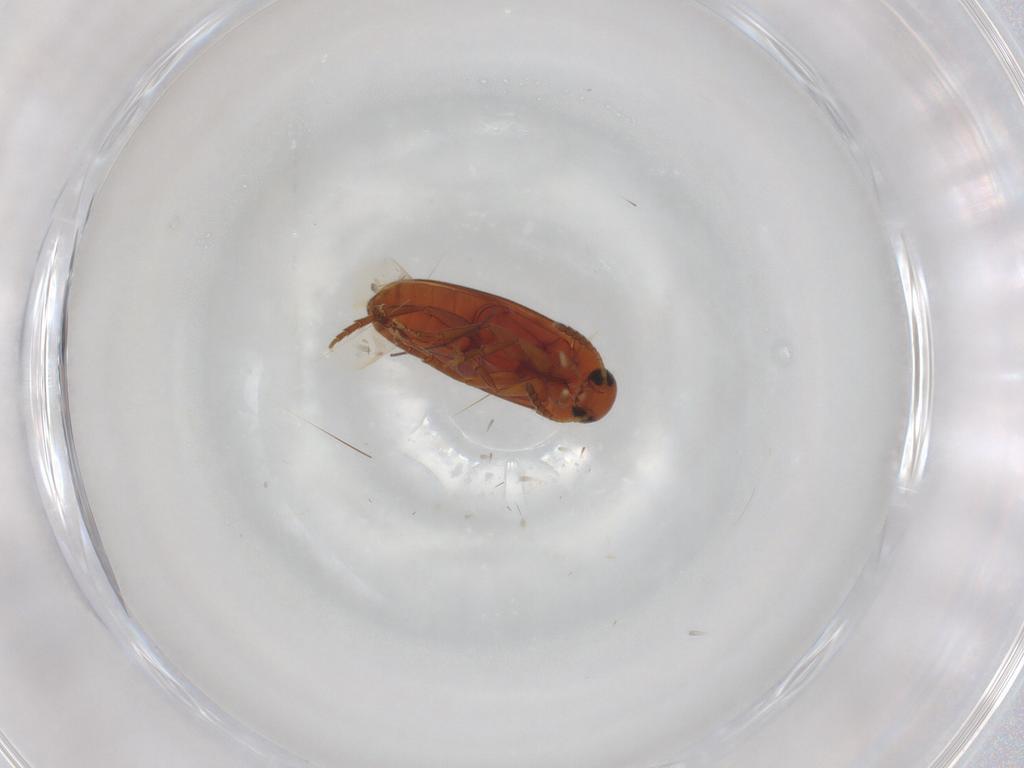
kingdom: Animalia
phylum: Arthropoda
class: Insecta
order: Coleoptera
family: Scraptiidae
